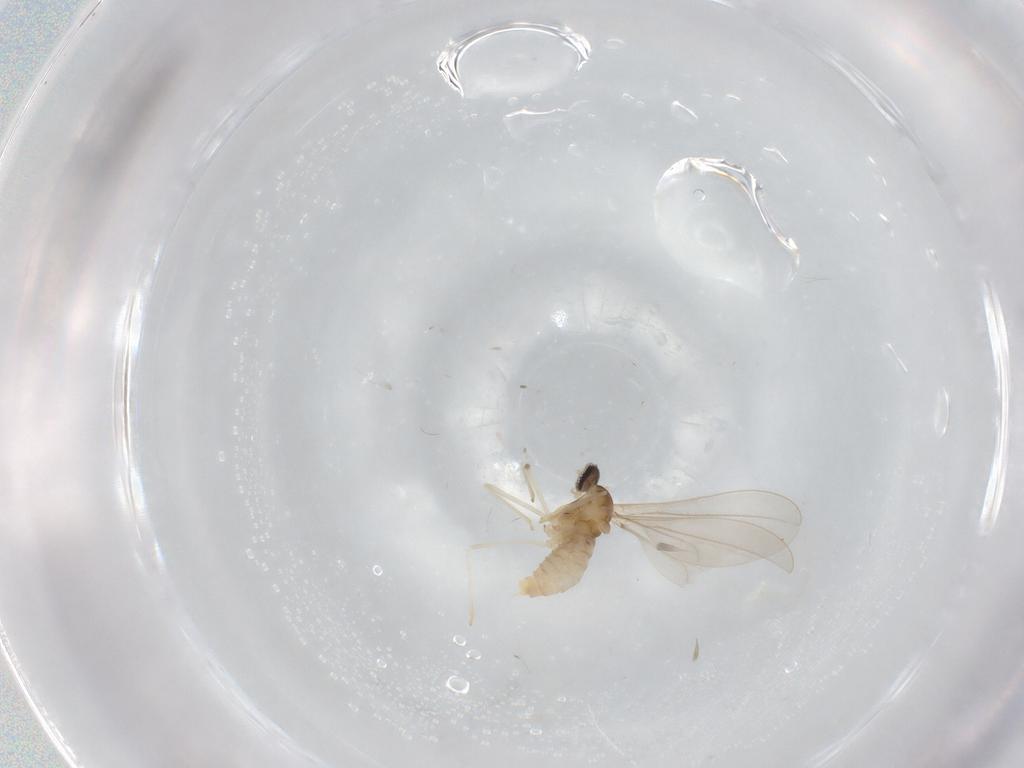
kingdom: Animalia
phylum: Arthropoda
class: Insecta
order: Diptera
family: Cecidomyiidae
